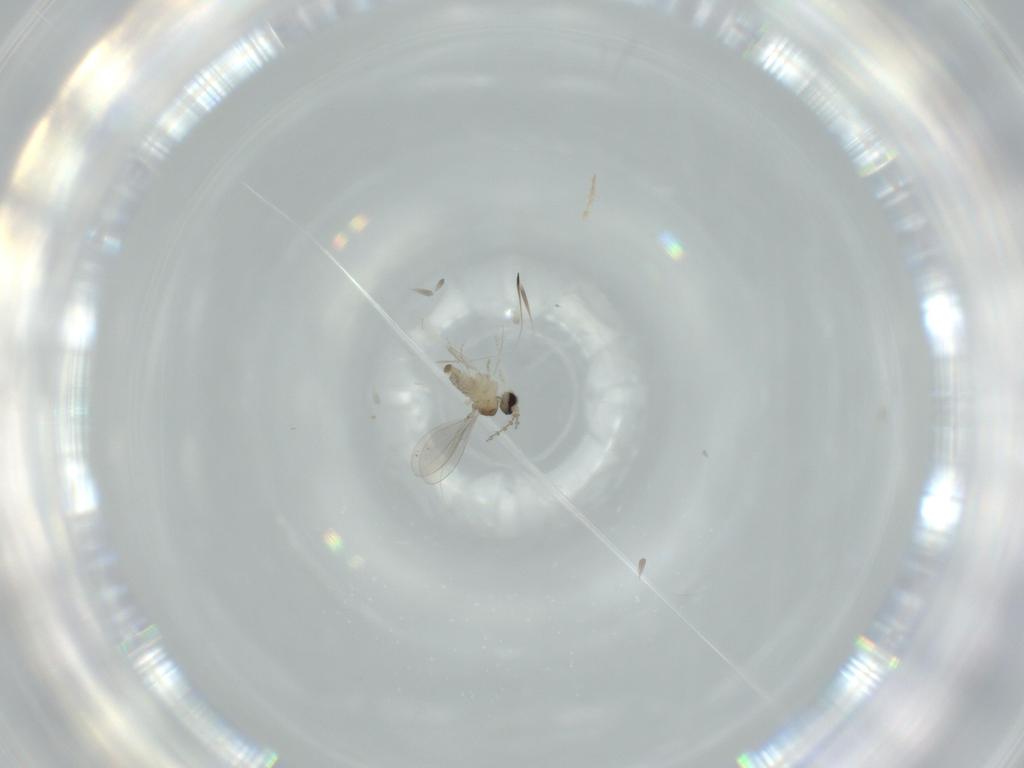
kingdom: Animalia
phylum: Arthropoda
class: Insecta
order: Diptera
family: Cecidomyiidae
